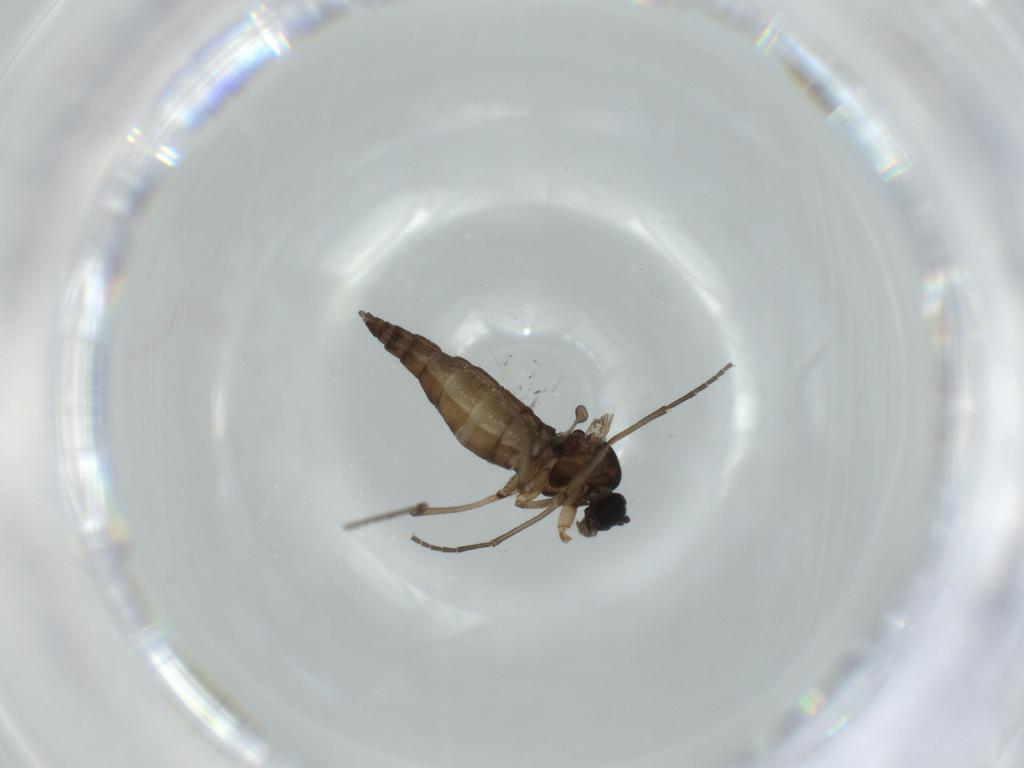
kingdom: Animalia
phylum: Arthropoda
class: Insecta
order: Diptera
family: Sciaridae
